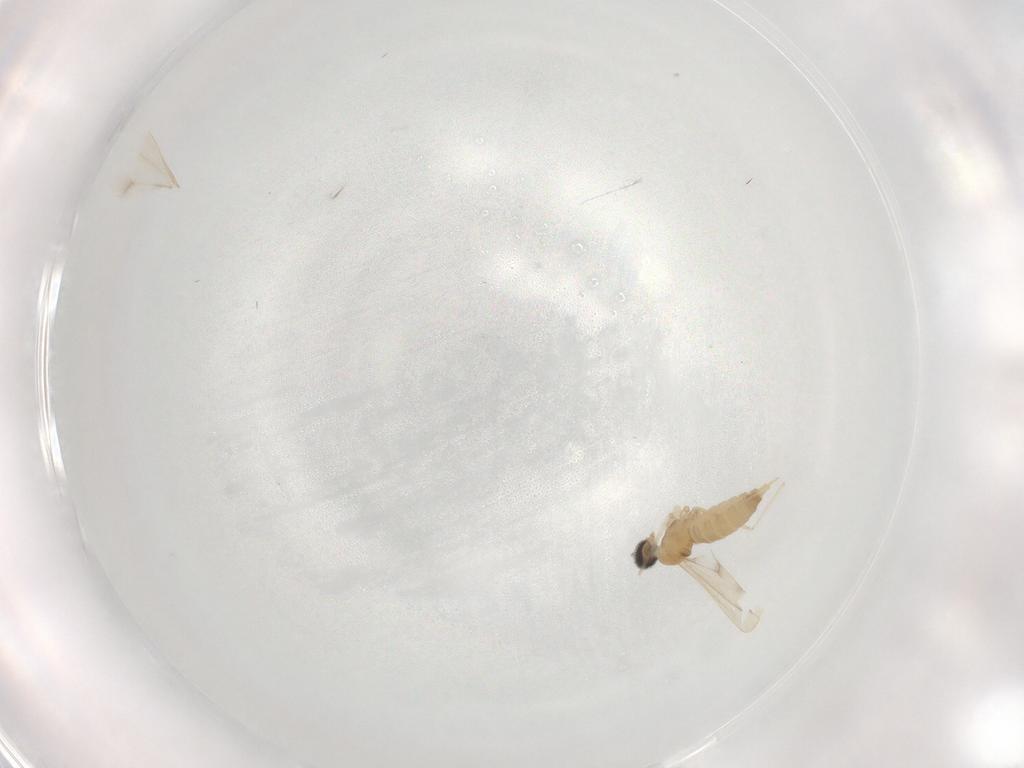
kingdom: Animalia
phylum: Arthropoda
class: Insecta
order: Diptera
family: Cecidomyiidae
